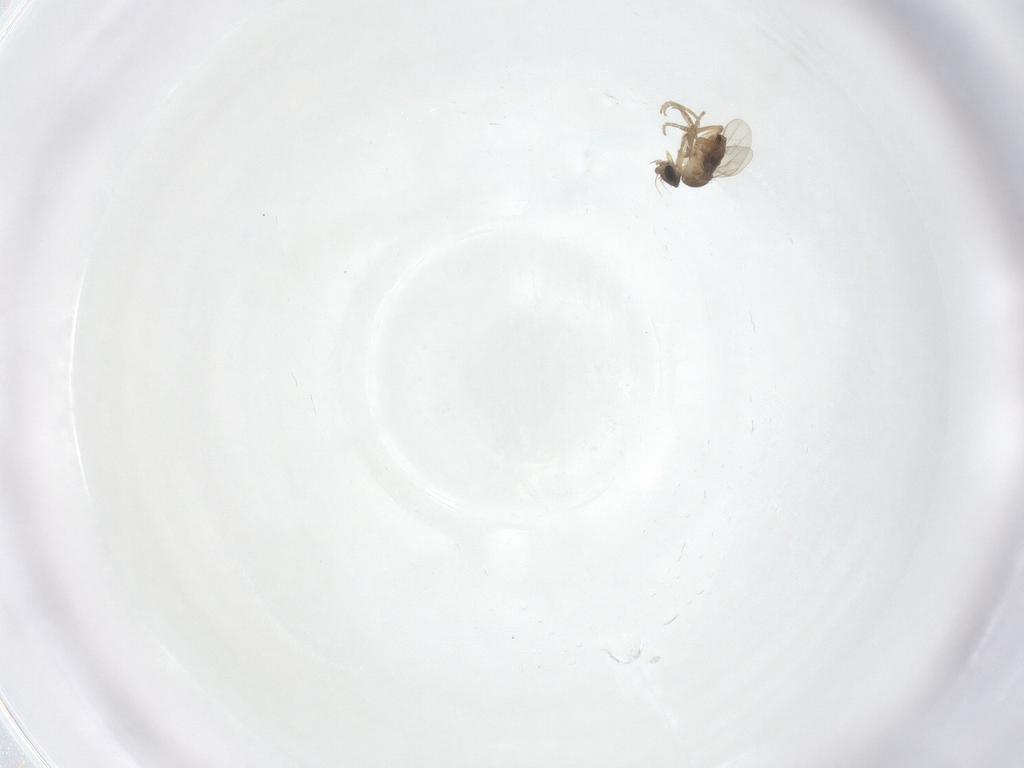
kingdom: Animalia
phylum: Arthropoda
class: Insecta
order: Diptera
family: Phoridae
